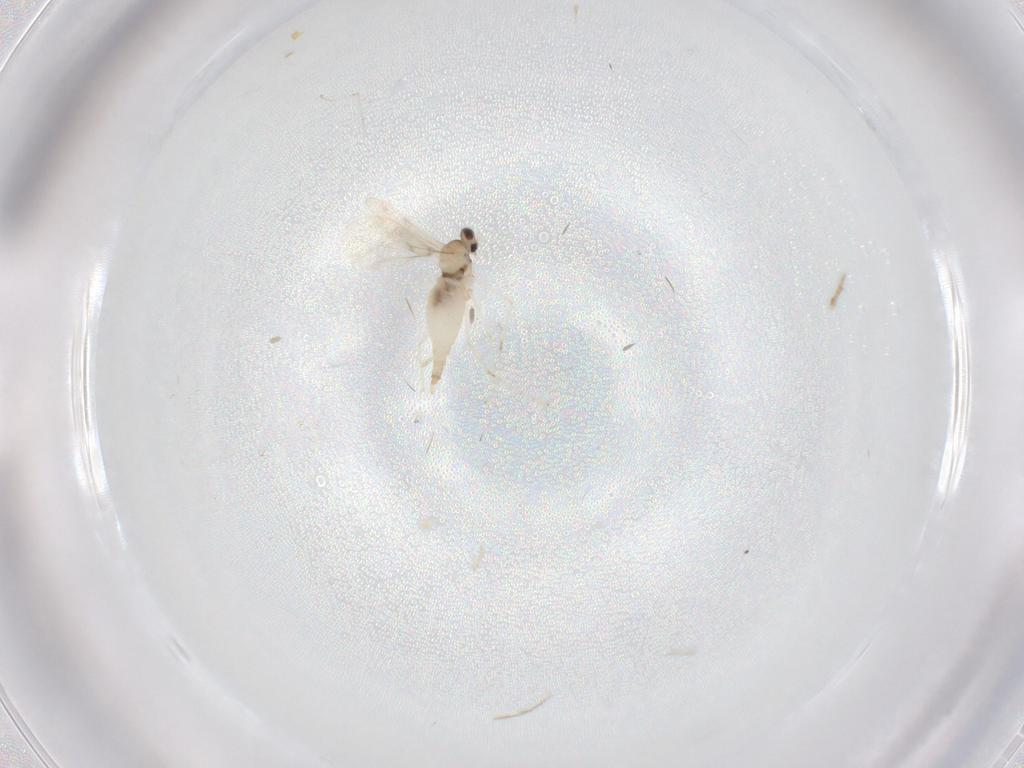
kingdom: Animalia
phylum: Arthropoda
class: Insecta
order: Diptera
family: Cecidomyiidae
